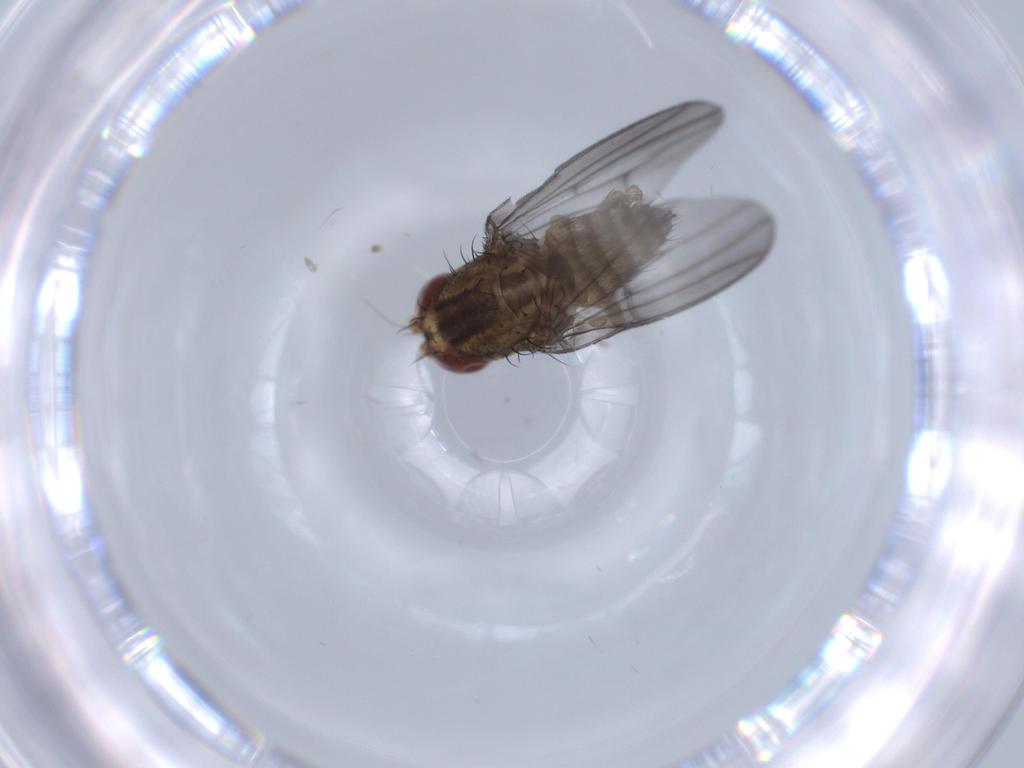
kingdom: Animalia
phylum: Arthropoda
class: Insecta
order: Diptera
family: Lauxaniidae
